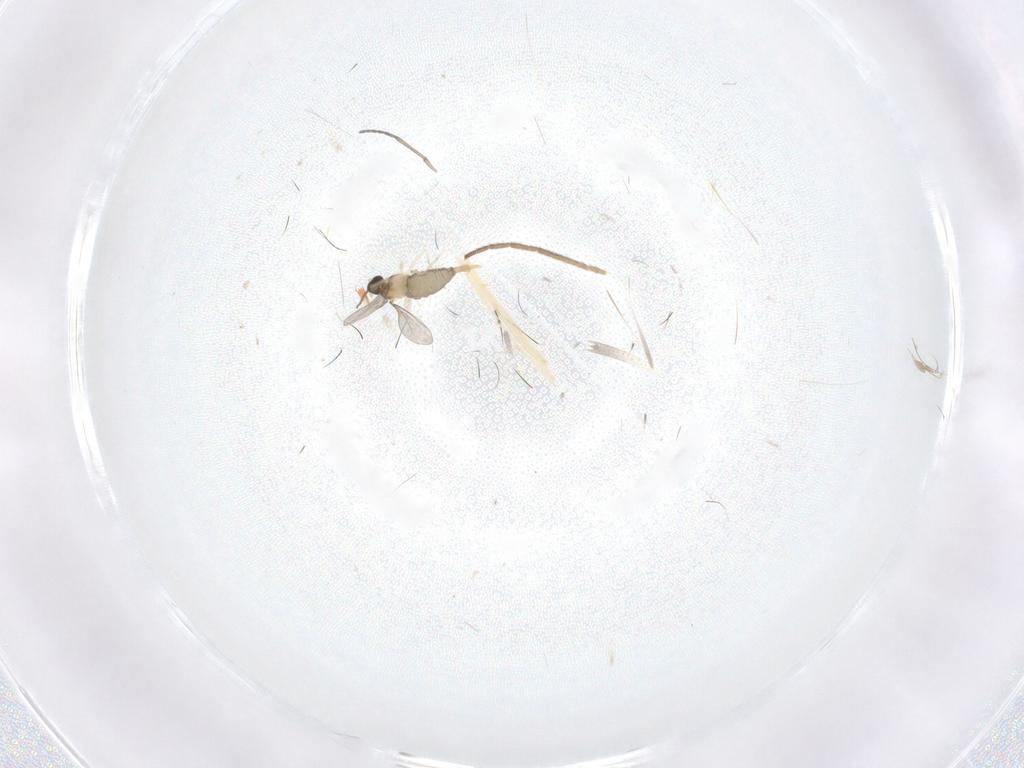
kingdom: Animalia
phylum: Arthropoda
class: Insecta
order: Diptera
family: Sciaridae
